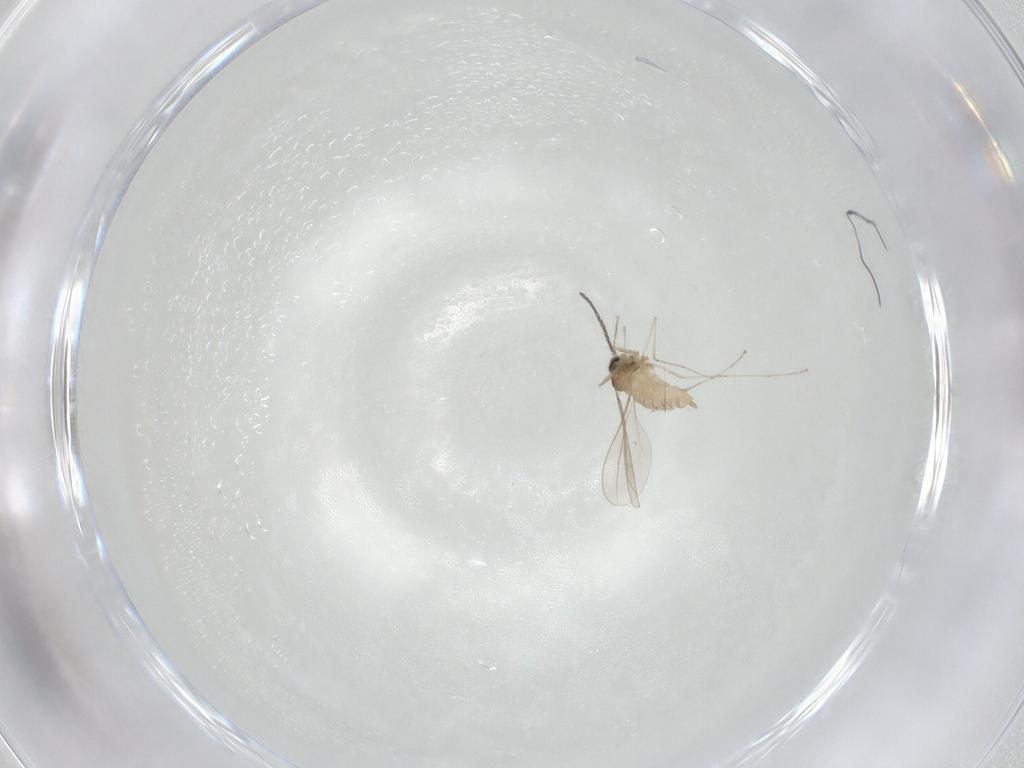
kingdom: Animalia
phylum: Arthropoda
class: Insecta
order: Diptera
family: Cecidomyiidae
